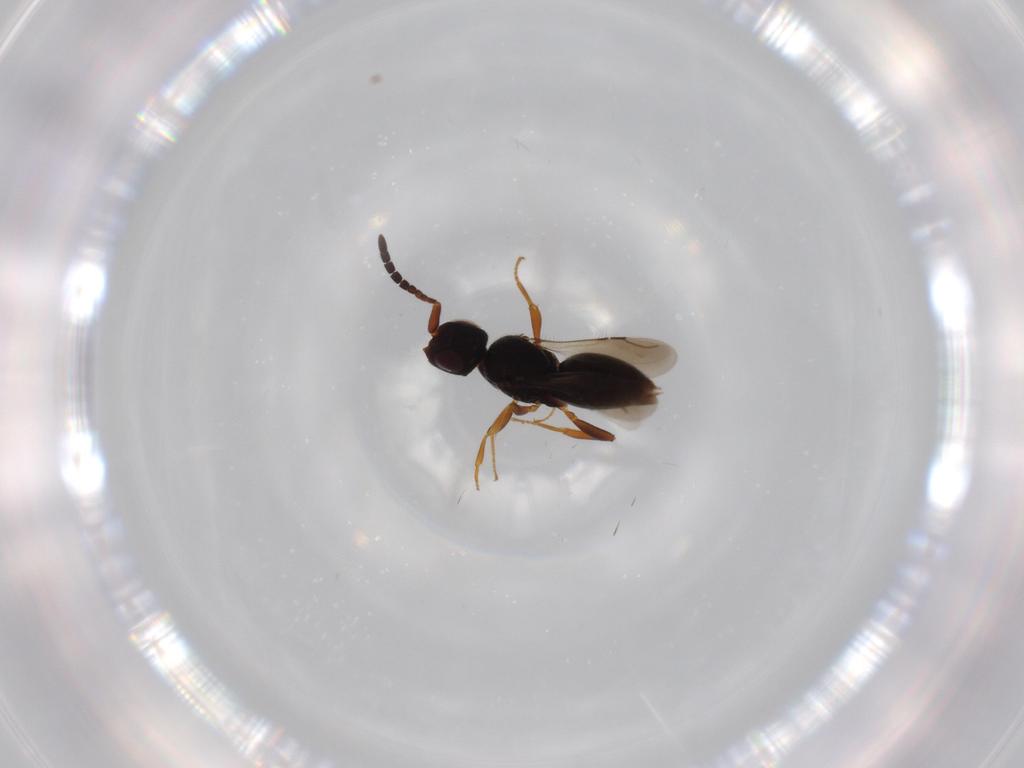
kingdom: Animalia
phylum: Arthropoda
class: Insecta
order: Hymenoptera
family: Ceraphronidae
